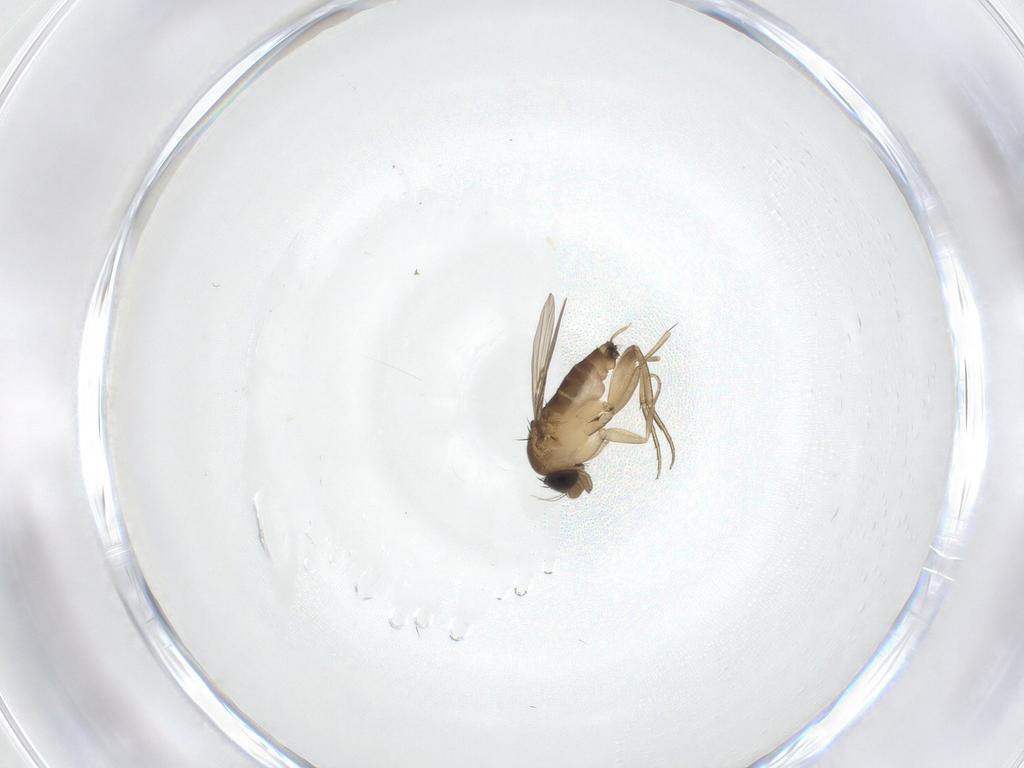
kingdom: Animalia
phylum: Arthropoda
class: Insecta
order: Diptera
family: Phoridae
